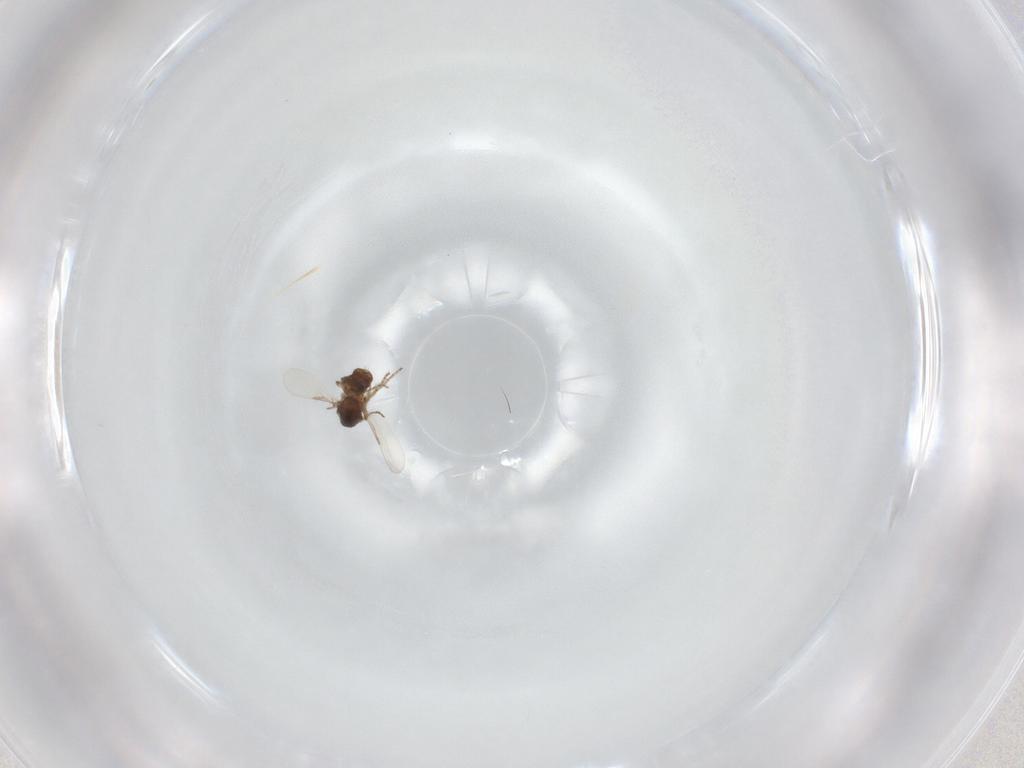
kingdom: Animalia
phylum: Arthropoda
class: Insecta
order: Diptera
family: Ceratopogonidae
